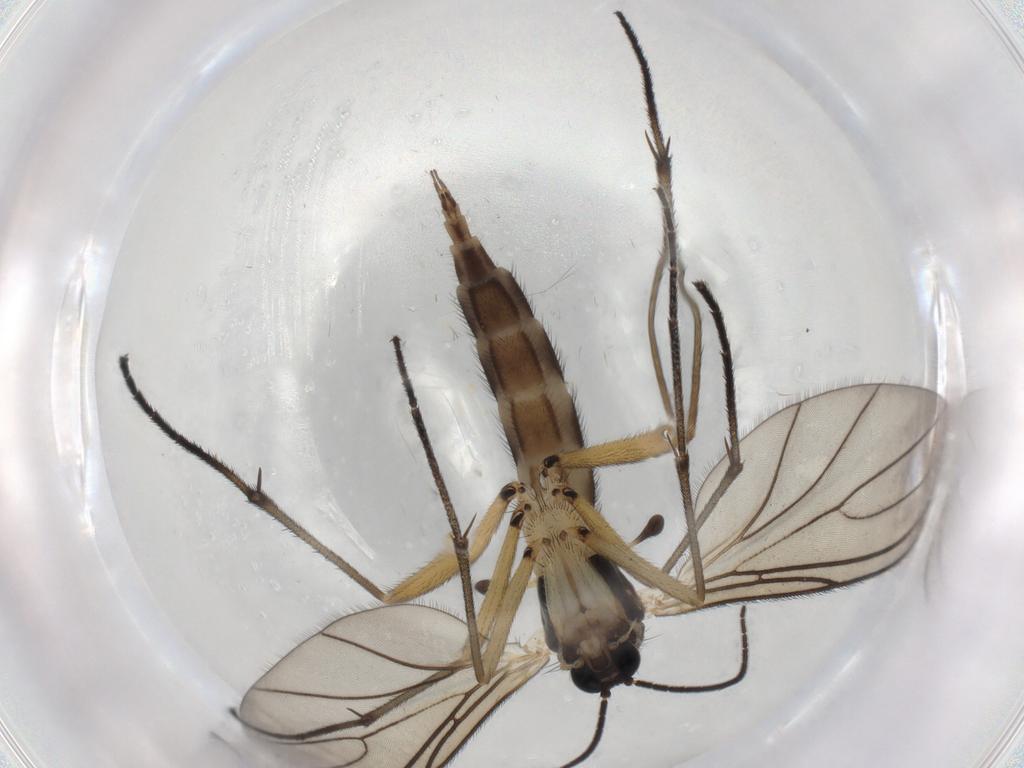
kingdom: Animalia
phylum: Arthropoda
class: Insecta
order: Diptera
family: Sciaridae
